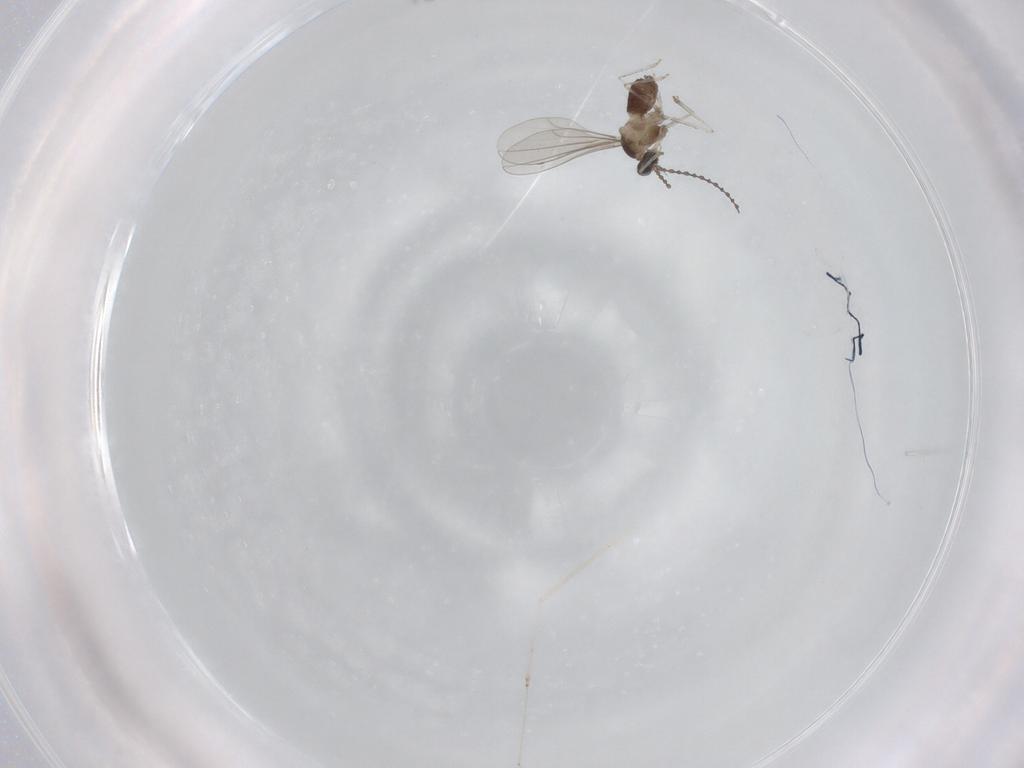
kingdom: Animalia
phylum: Arthropoda
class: Insecta
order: Diptera
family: Cecidomyiidae
